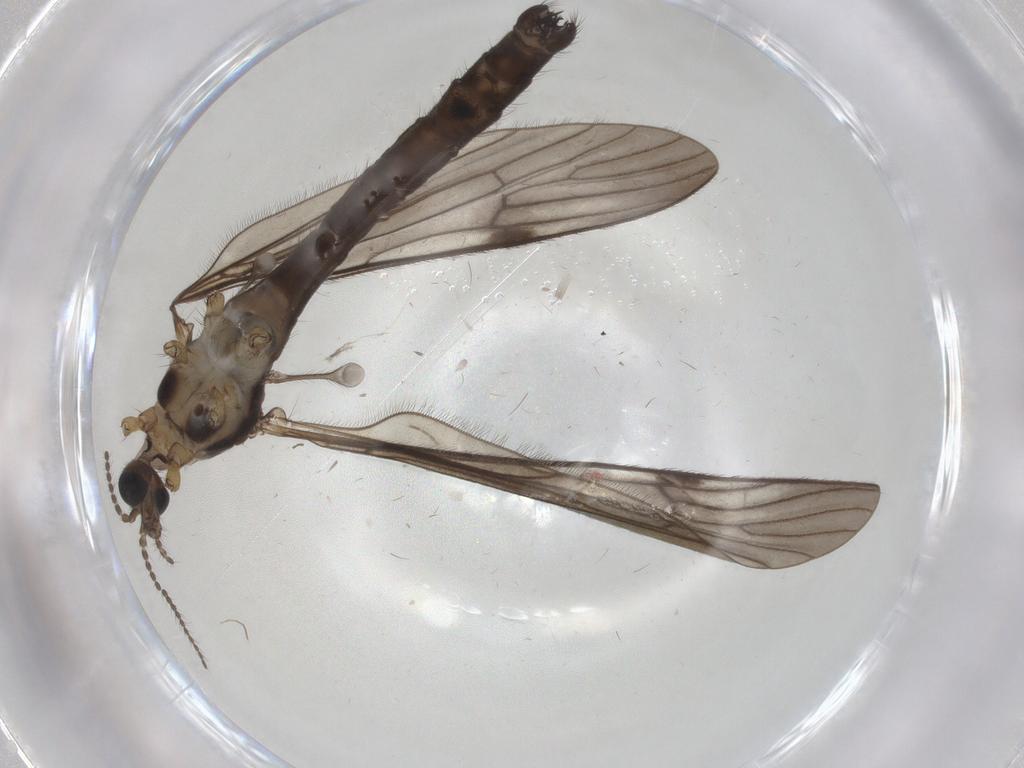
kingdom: Animalia
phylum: Arthropoda
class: Insecta
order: Diptera
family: Limoniidae
